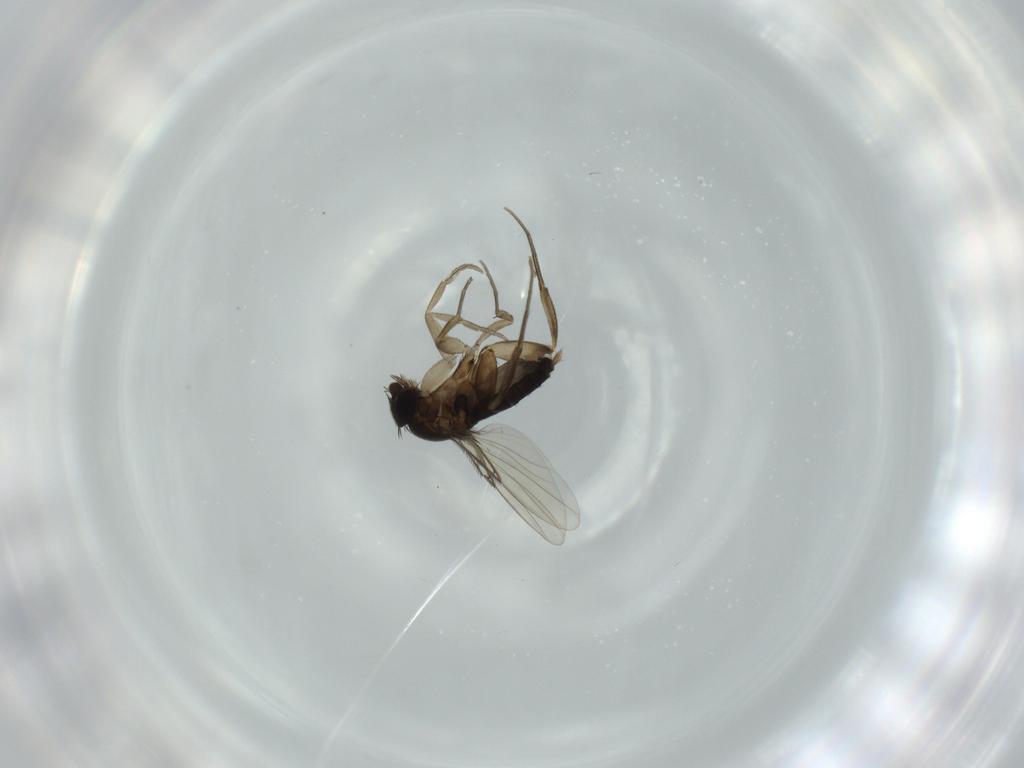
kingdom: Animalia
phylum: Arthropoda
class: Insecta
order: Diptera
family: Phoridae
